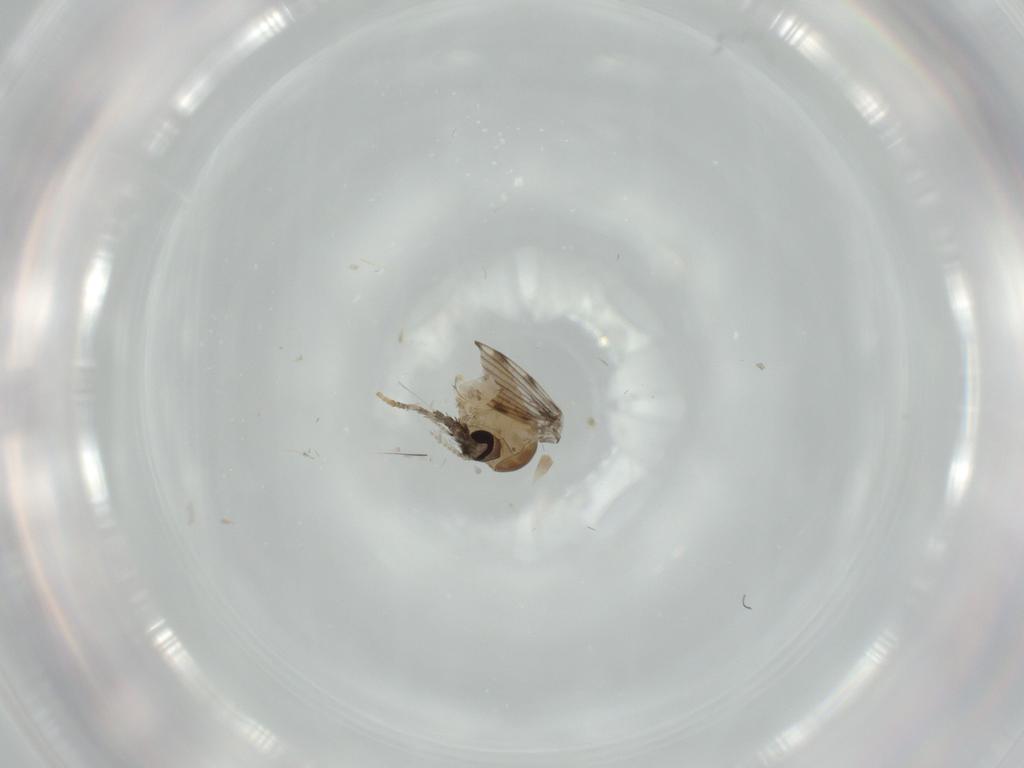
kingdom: Animalia
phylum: Arthropoda
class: Insecta
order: Diptera
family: Psychodidae
